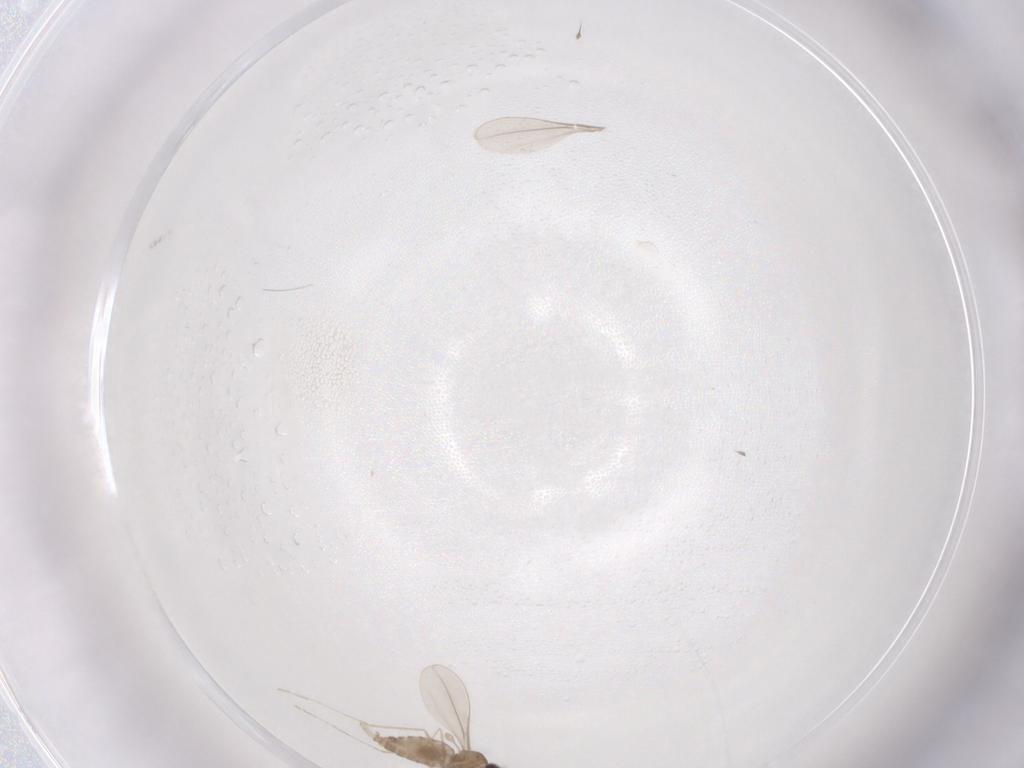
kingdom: Animalia
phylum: Arthropoda
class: Insecta
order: Diptera
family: Cecidomyiidae
